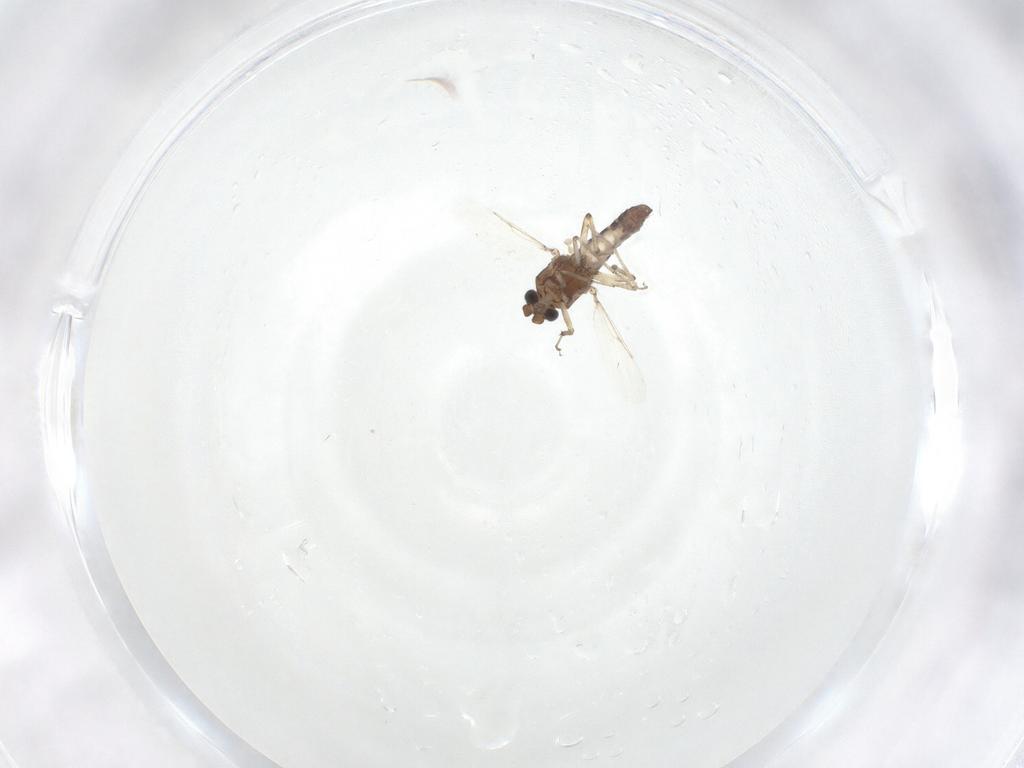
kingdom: Animalia
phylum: Arthropoda
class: Insecta
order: Diptera
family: Ceratopogonidae
